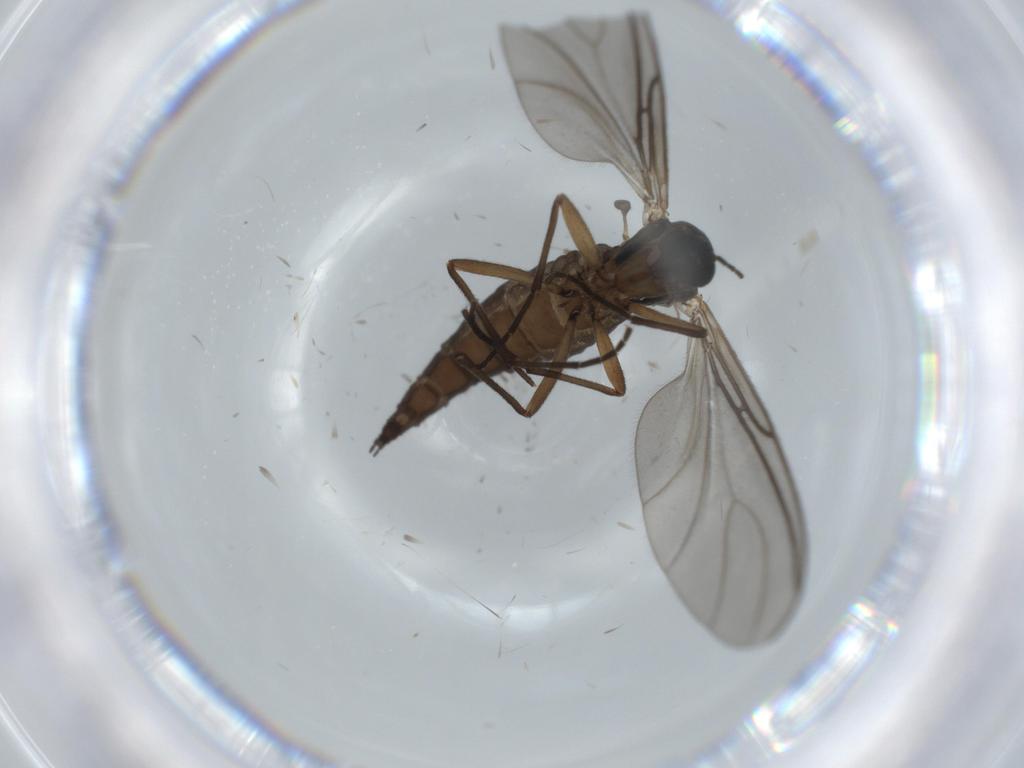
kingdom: Animalia
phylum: Arthropoda
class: Insecta
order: Diptera
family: Sciaridae
